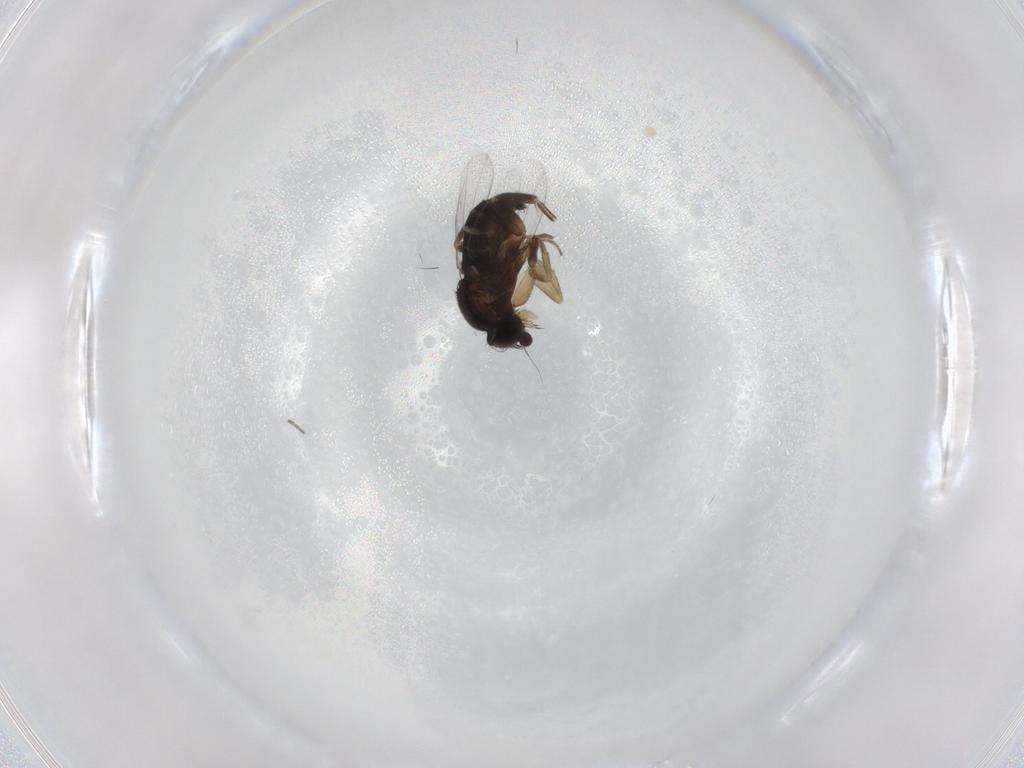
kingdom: Animalia
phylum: Arthropoda
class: Insecta
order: Diptera
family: Phoridae
